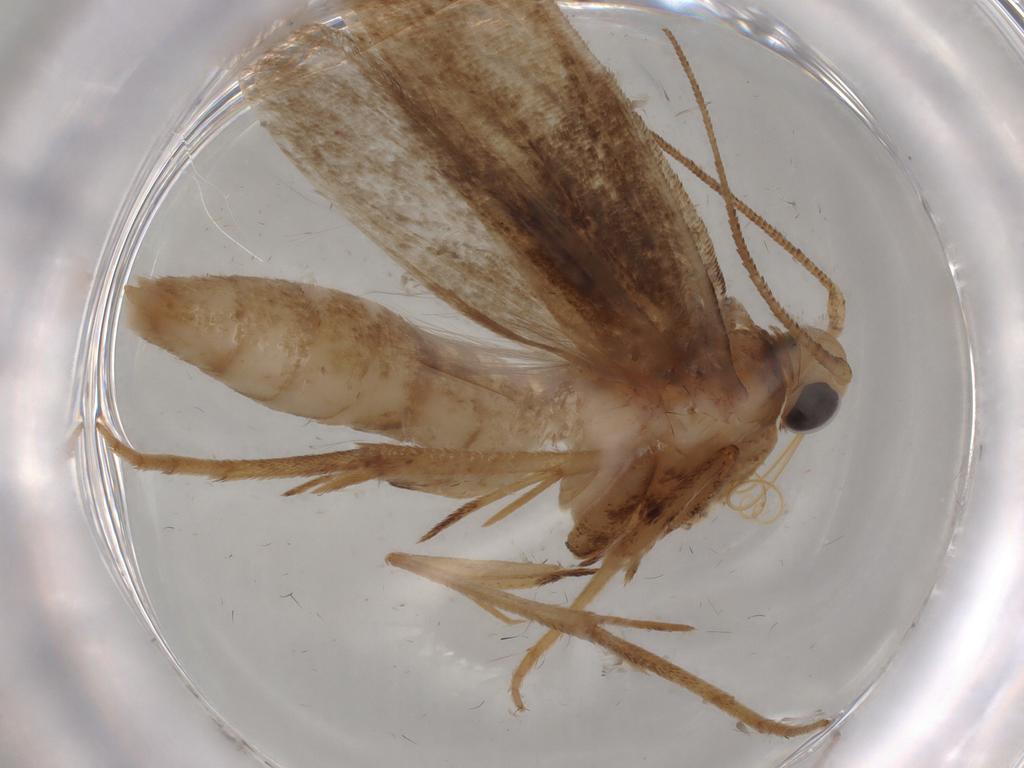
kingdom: Animalia
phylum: Arthropoda
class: Insecta
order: Lepidoptera
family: Yponomeutidae
